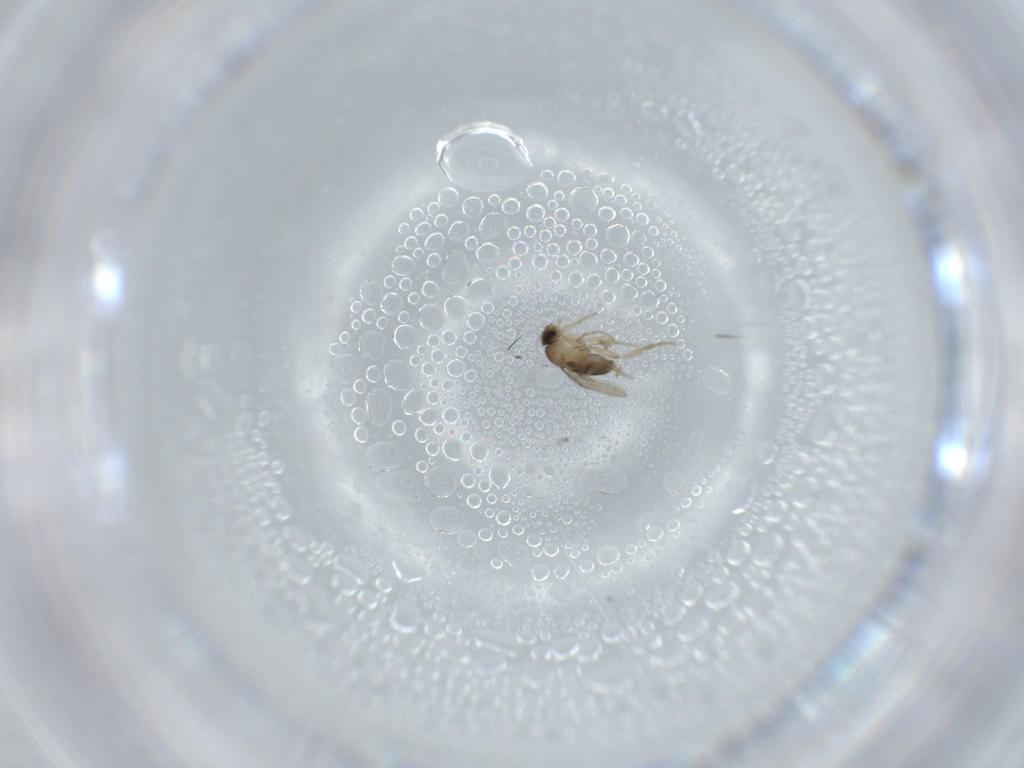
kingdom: Animalia
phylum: Arthropoda
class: Insecta
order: Diptera
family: Phoridae
